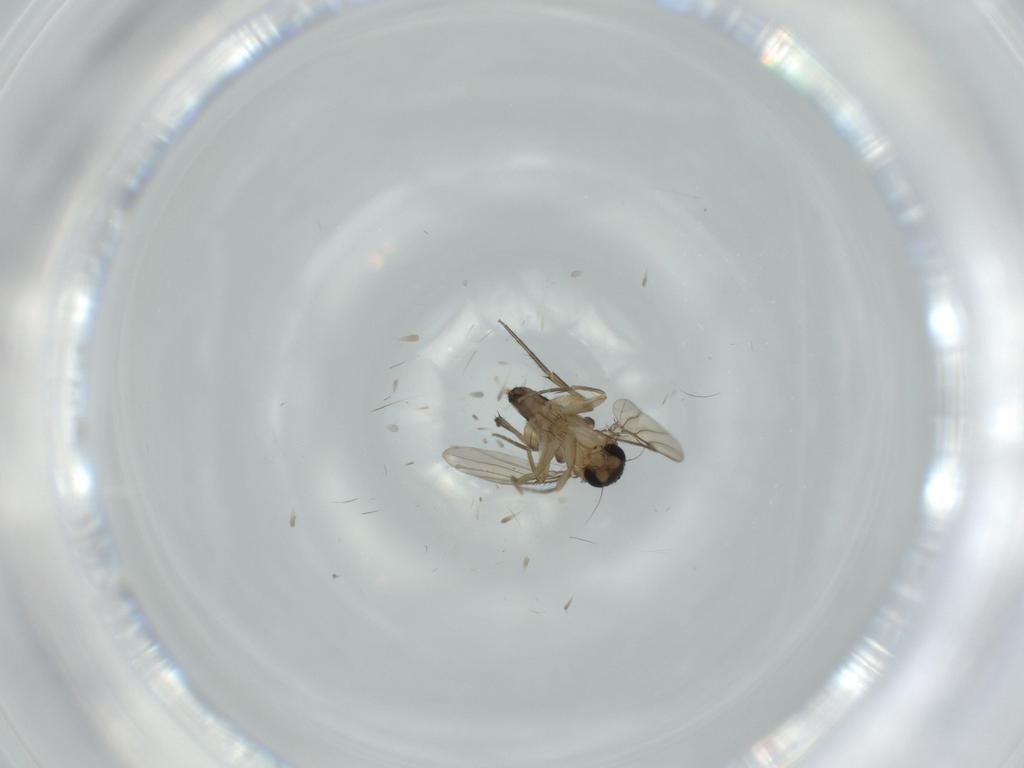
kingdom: Animalia
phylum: Arthropoda
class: Insecta
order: Diptera
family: Phoridae
